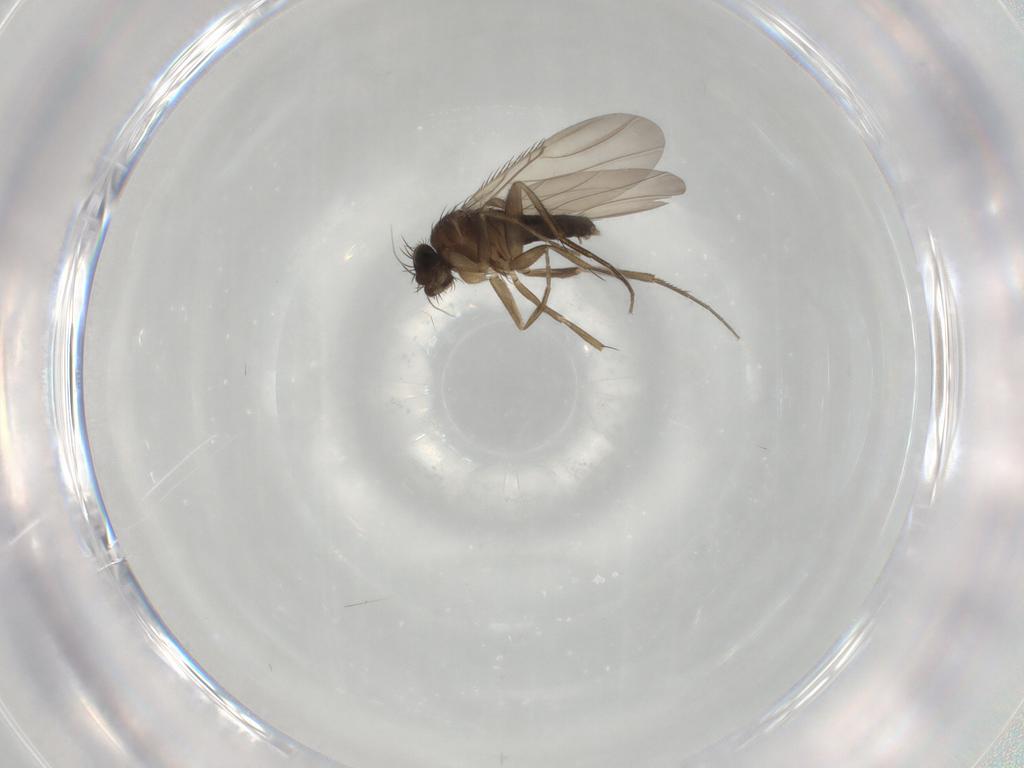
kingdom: Animalia
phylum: Arthropoda
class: Insecta
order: Diptera
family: Phoridae
